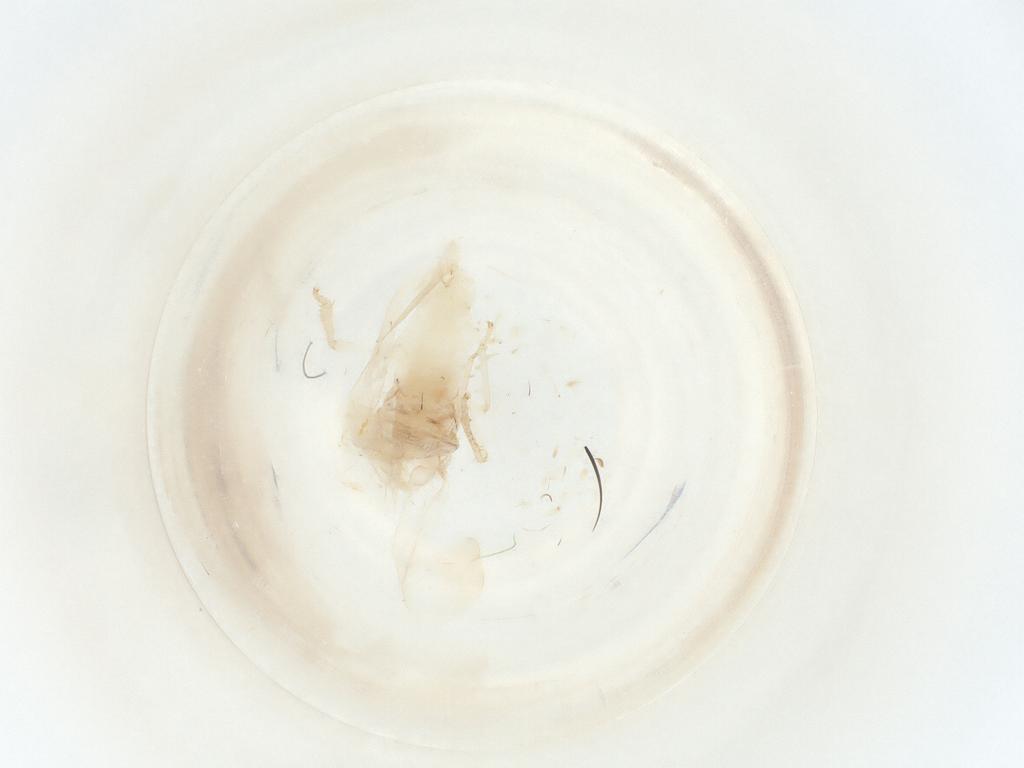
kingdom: Animalia
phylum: Arthropoda
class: Insecta
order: Hemiptera
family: Cicadellidae
